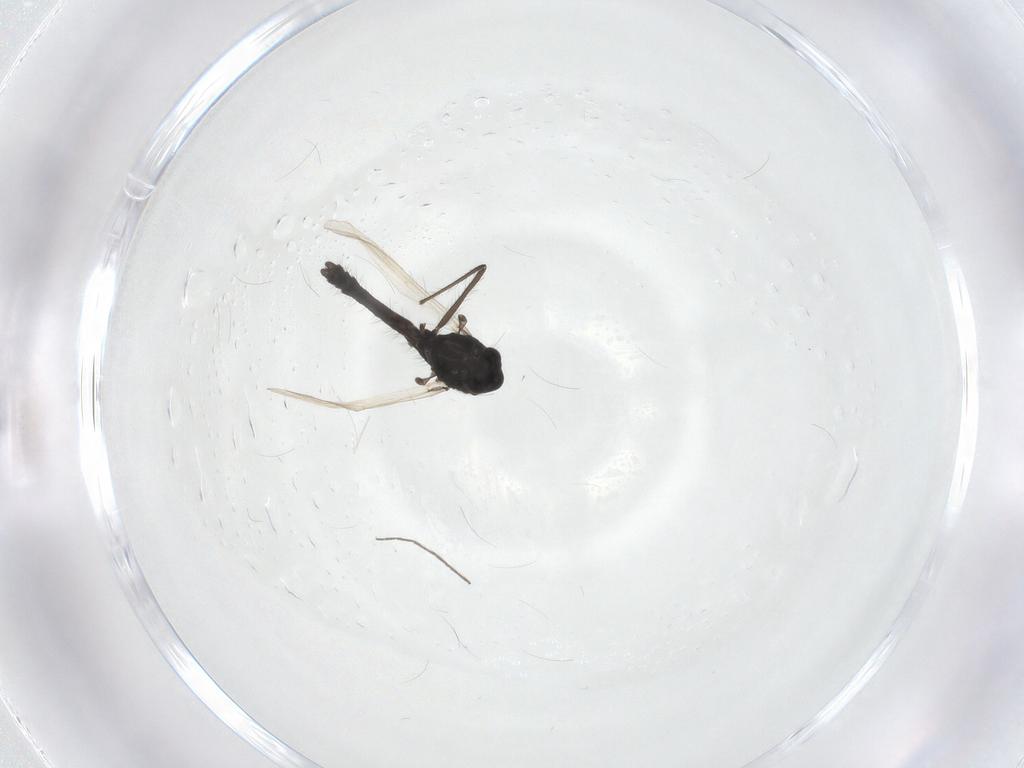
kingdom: Animalia
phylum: Arthropoda
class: Insecta
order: Diptera
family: Chironomidae
